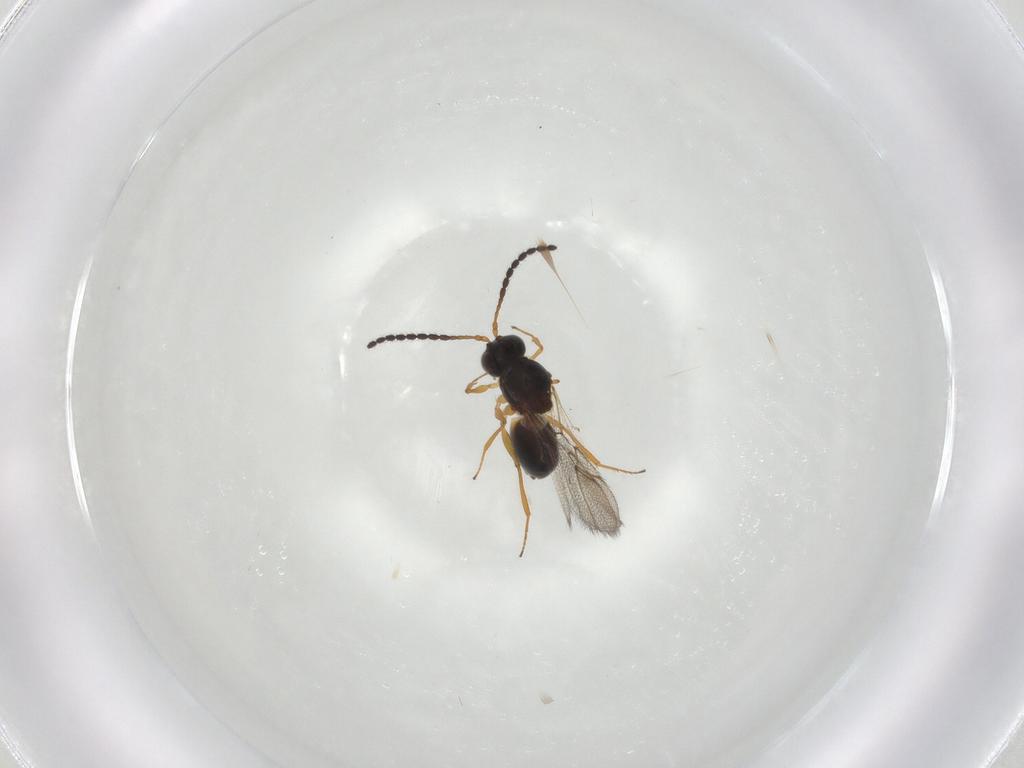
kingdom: Animalia
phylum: Arthropoda
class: Insecta
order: Hymenoptera
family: Figitidae
